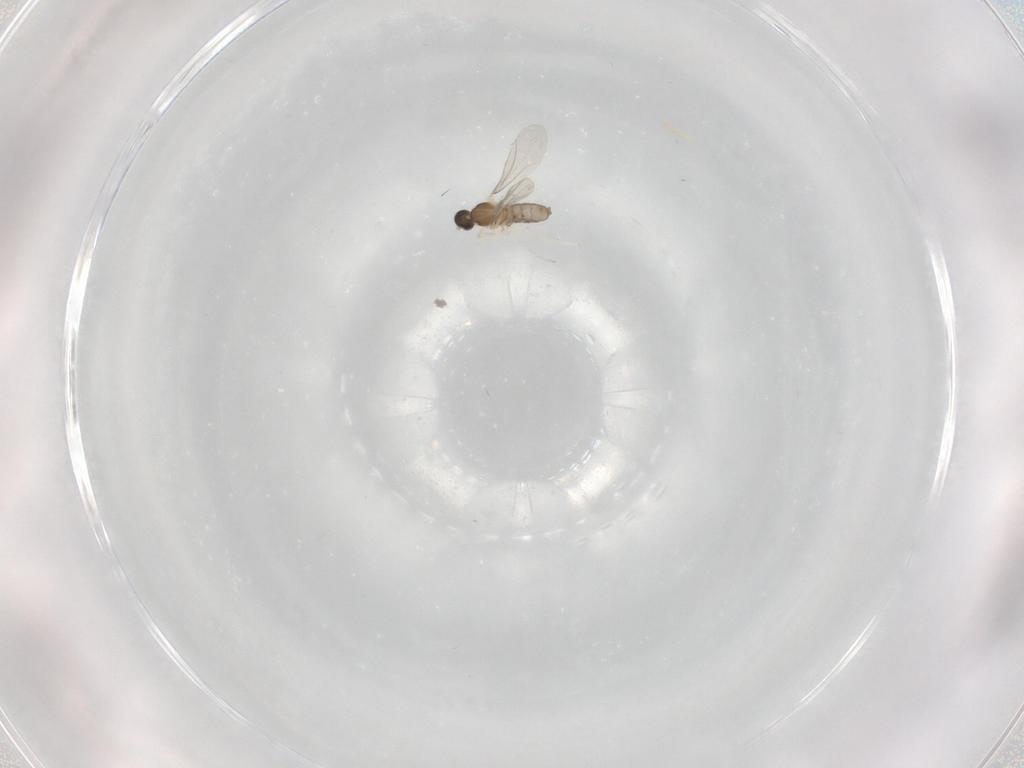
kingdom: Animalia
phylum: Arthropoda
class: Insecta
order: Diptera
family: Cecidomyiidae
